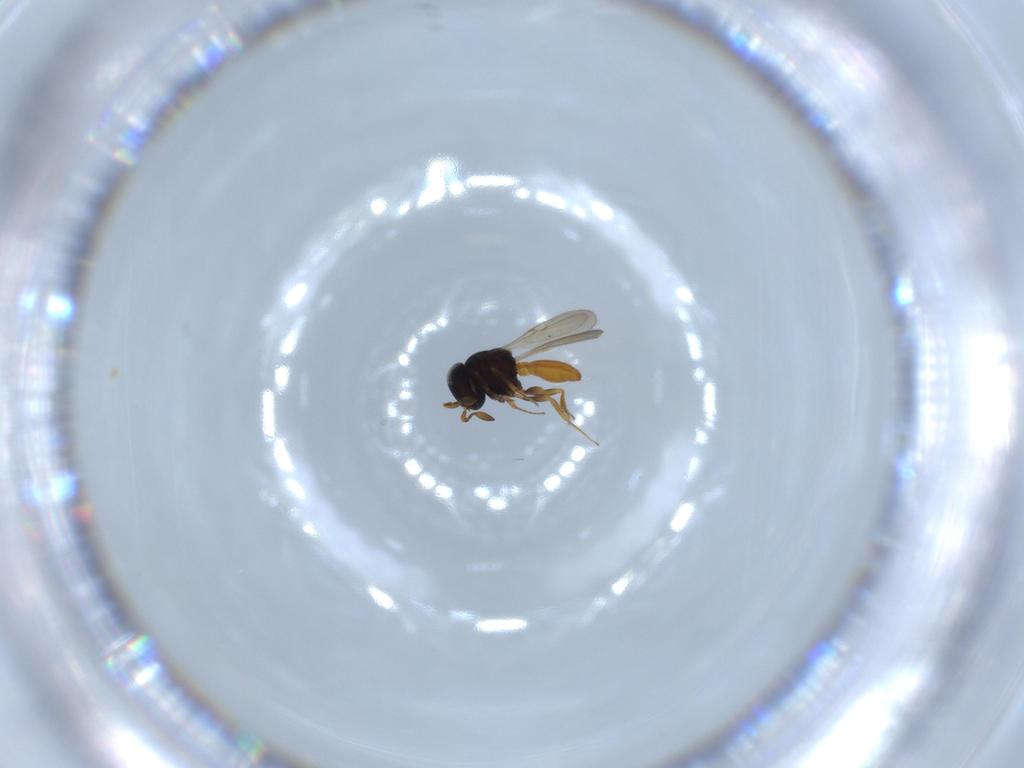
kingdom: Animalia
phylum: Arthropoda
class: Insecta
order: Hymenoptera
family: Scelionidae
